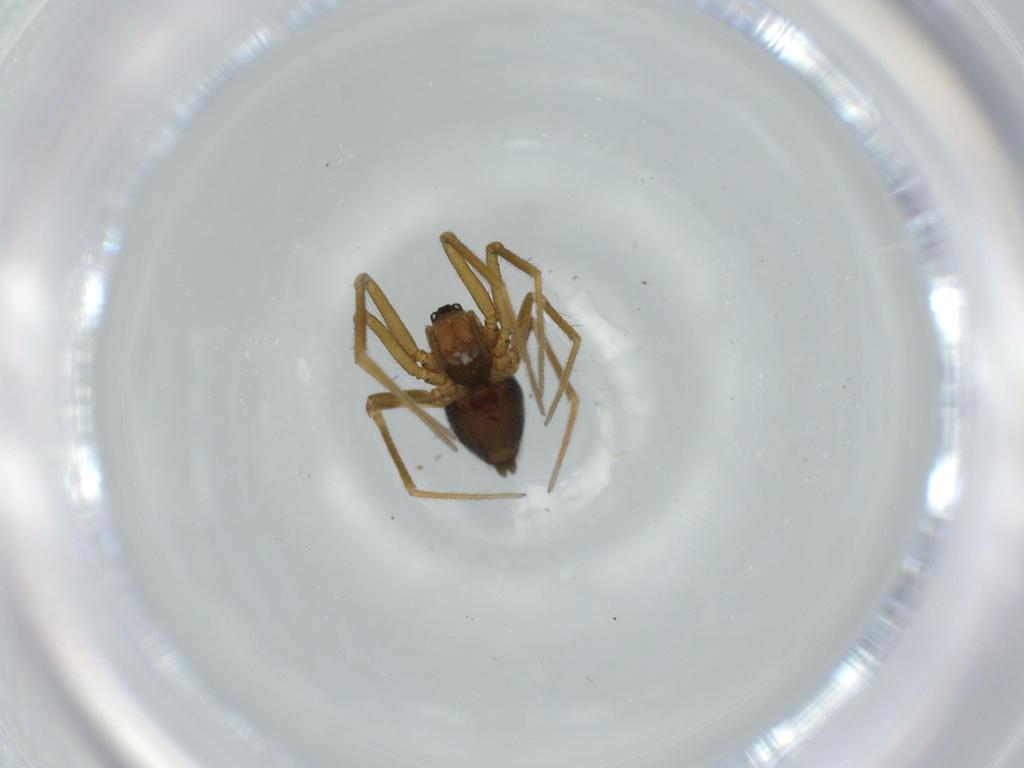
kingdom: Animalia
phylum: Arthropoda
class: Arachnida
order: Araneae
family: Linyphiidae
